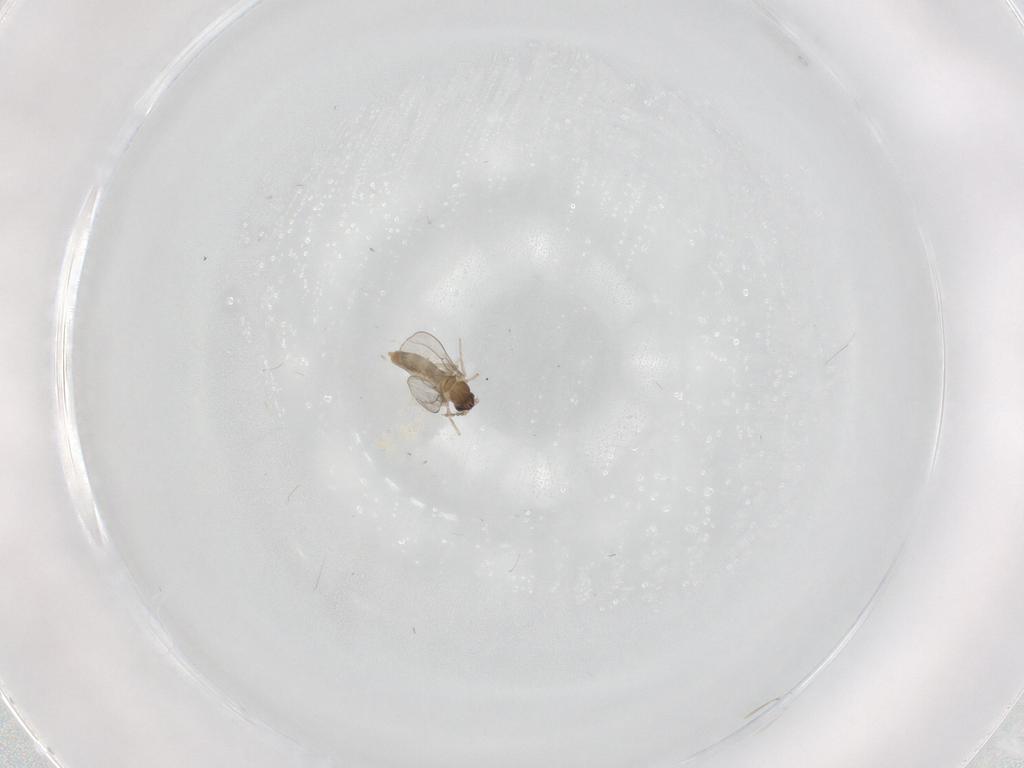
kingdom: Animalia
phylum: Arthropoda
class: Insecta
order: Diptera
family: Cecidomyiidae
